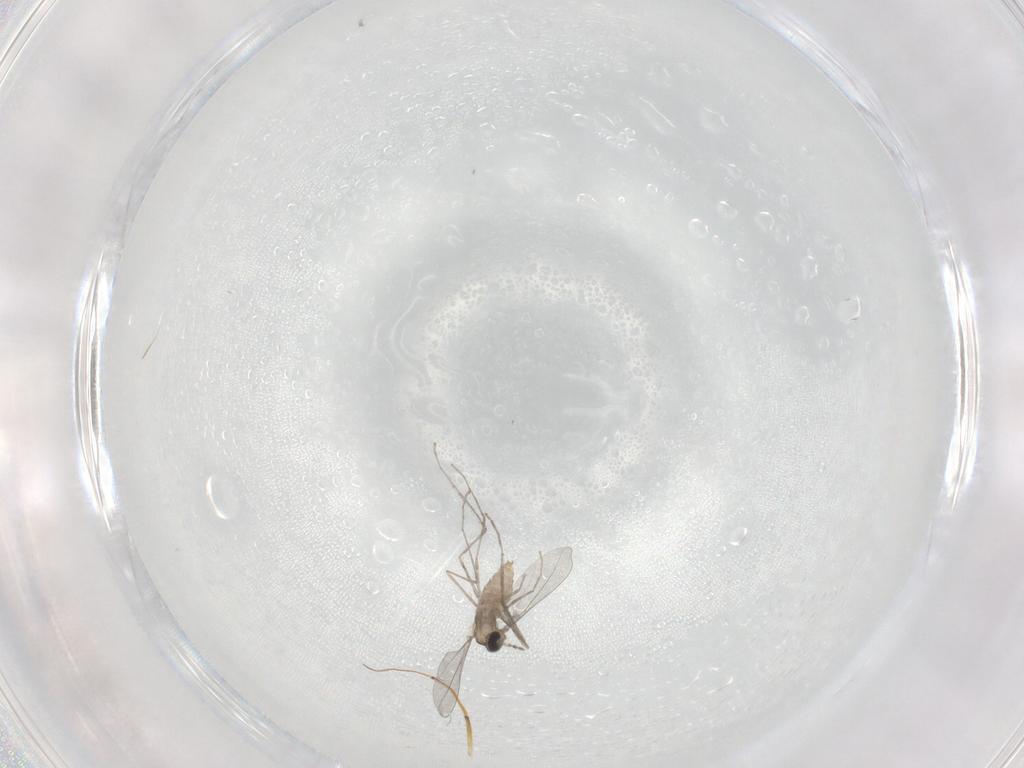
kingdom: Animalia
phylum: Arthropoda
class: Insecta
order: Diptera
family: Cecidomyiidae
